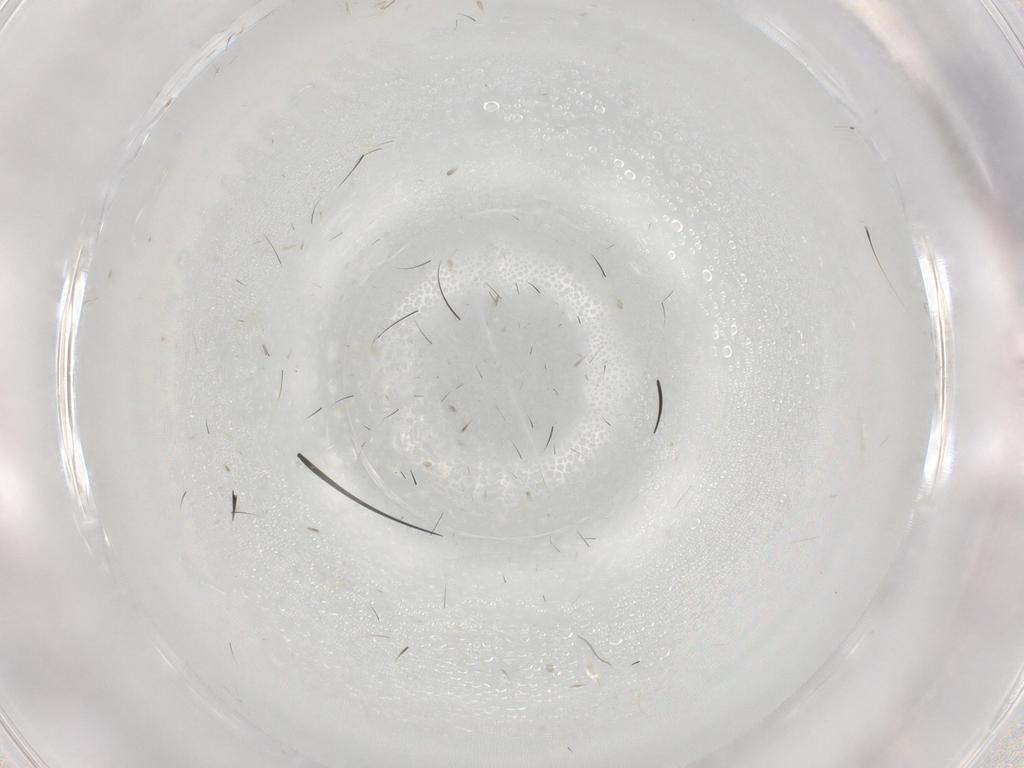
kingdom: Animalia
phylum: Arthropoda
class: Insecta
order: Diptera
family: Muscidae
